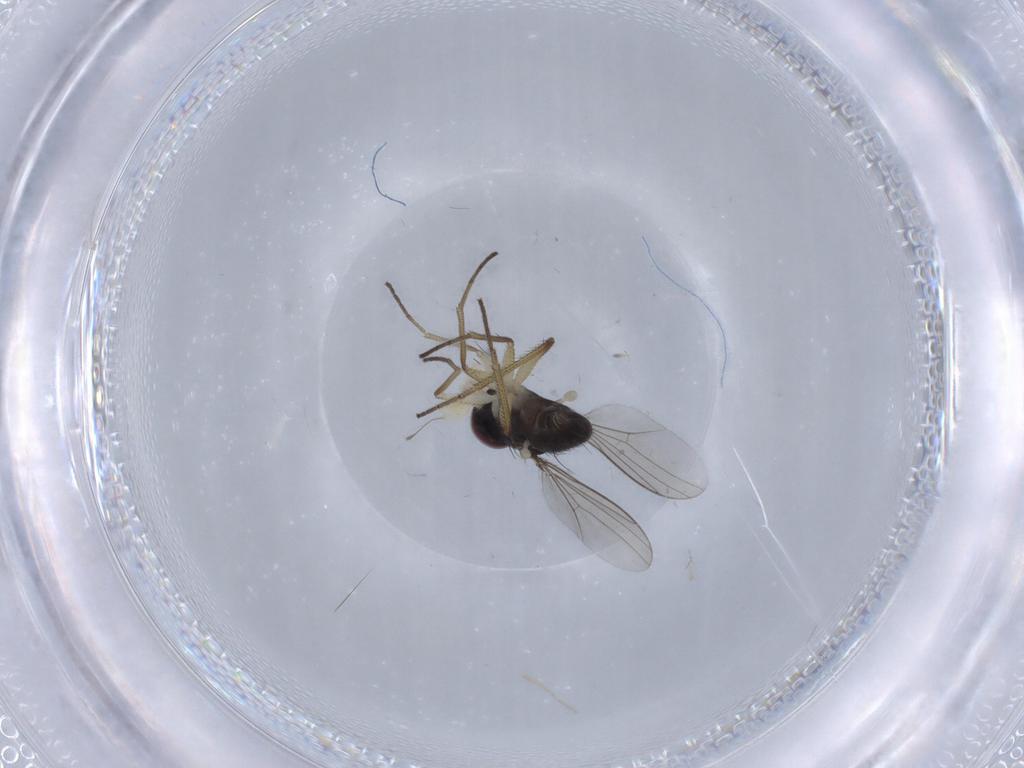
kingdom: Animalia
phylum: Arthropoda
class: Insecta
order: Diptera
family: Dolichopodidae
